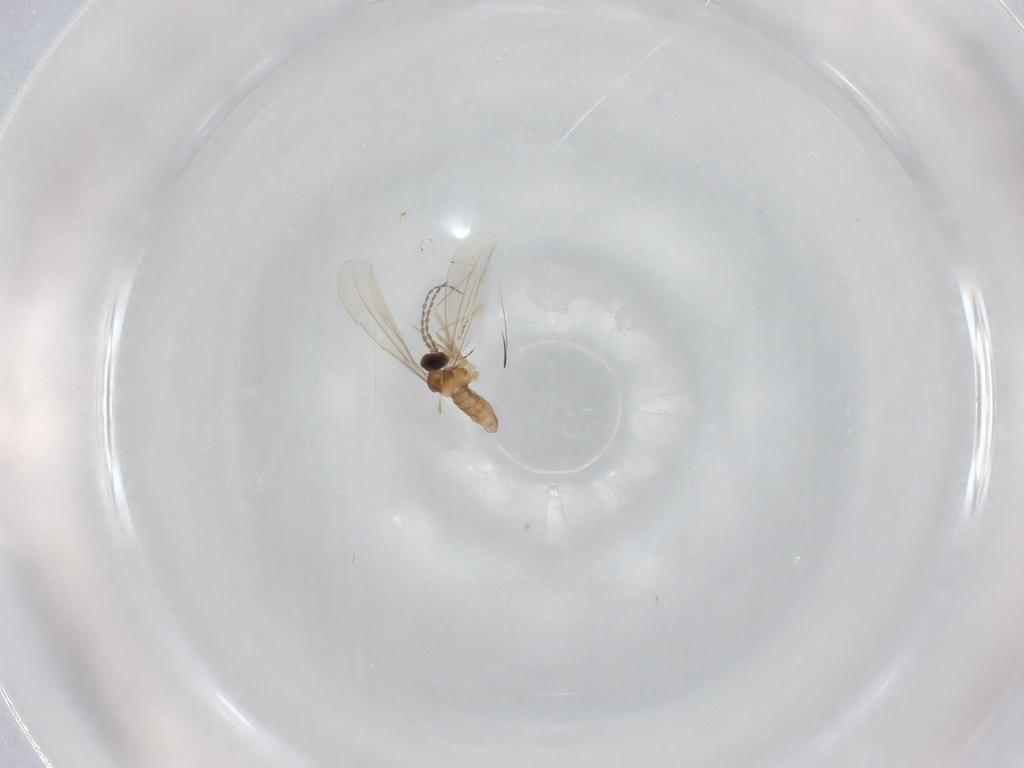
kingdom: Animalia
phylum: Arthropoda
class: Insecta
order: Diptera
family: Cecidomyiidae
